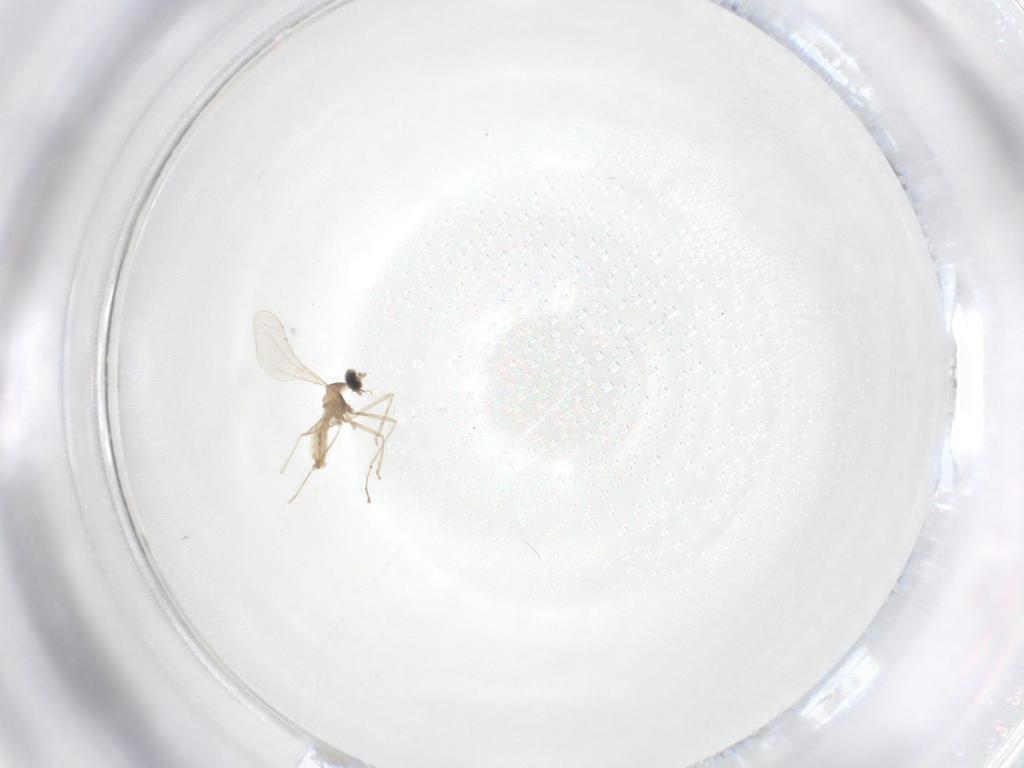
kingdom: Animalia
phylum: Arthropoda
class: Insecta
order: Diptera
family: Cecidomyiidae
